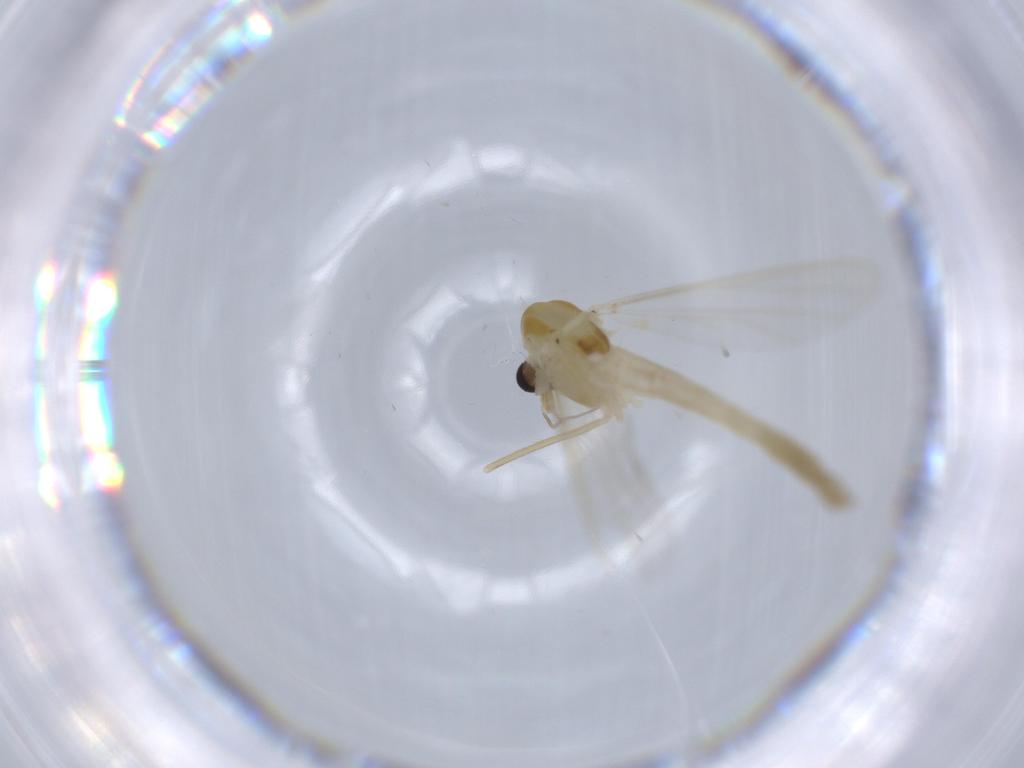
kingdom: Animalia
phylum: Arthropoda
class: Insecta
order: Diptera
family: Chironomidae
